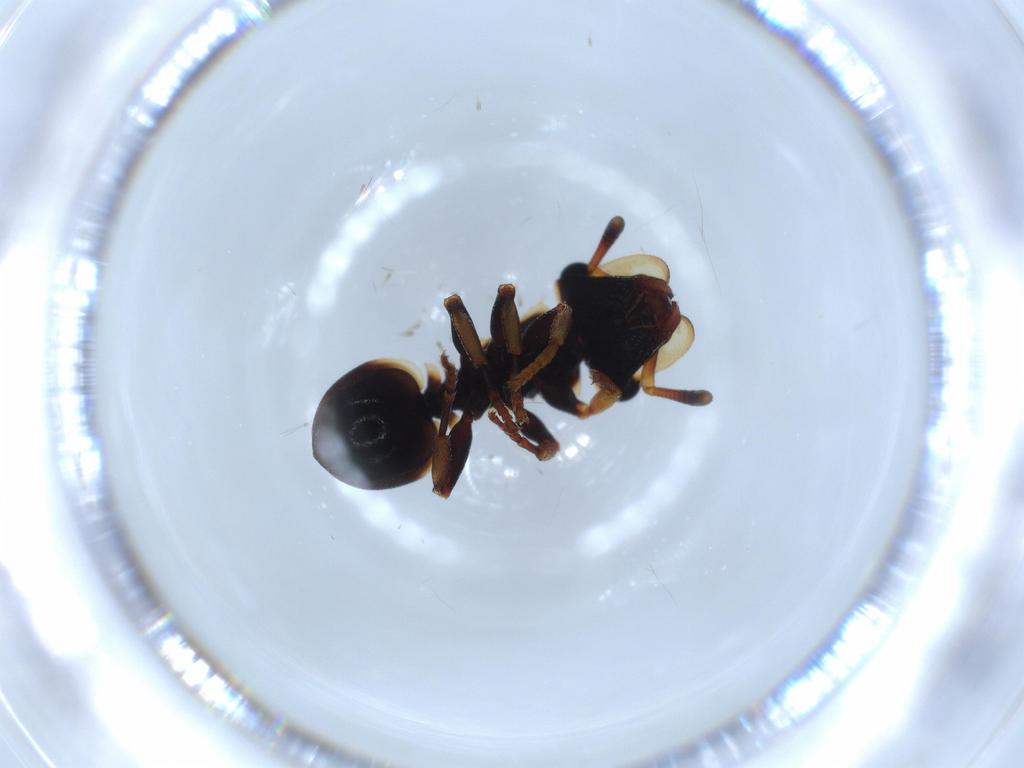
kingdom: Animalia
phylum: Arthropoda
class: Insecta
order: Hymenoptera
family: Formicidae
